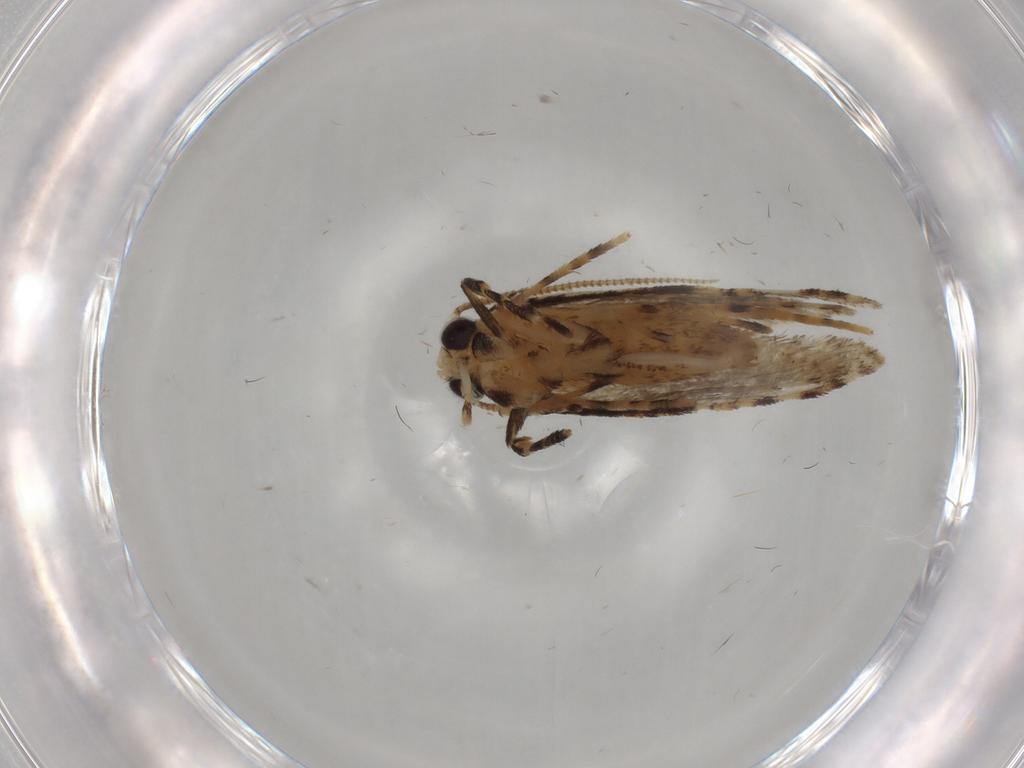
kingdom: Animalia
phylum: Arthropoda
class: Insecta
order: Lepidoptera
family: Tineidae
